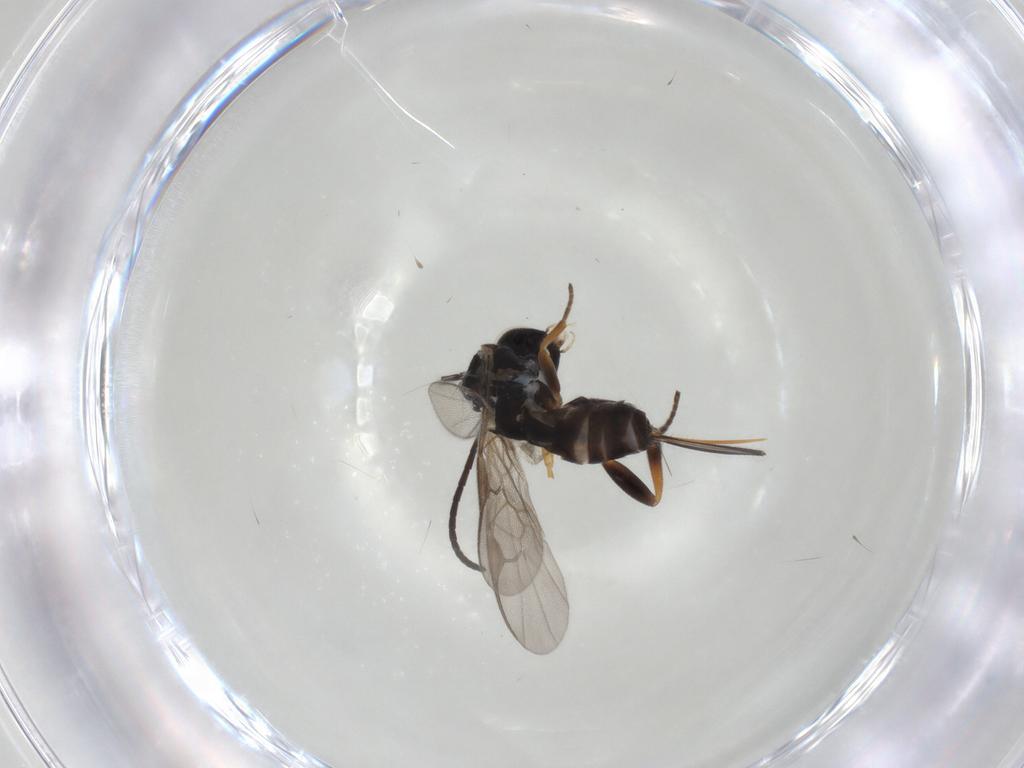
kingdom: Animalia
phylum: Arthropoda
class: Insecta
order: Hymenoptera
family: Braconidae
